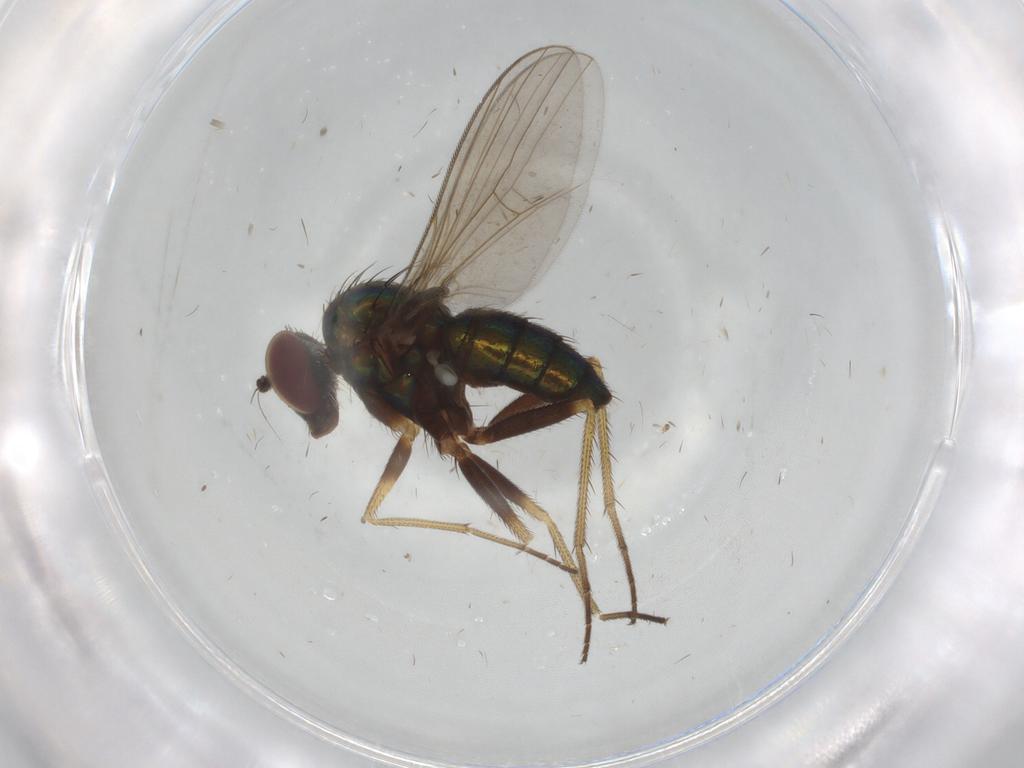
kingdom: Animalia
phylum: Arthropoda
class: Insecta
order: Diptera
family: Dolichopodidae
